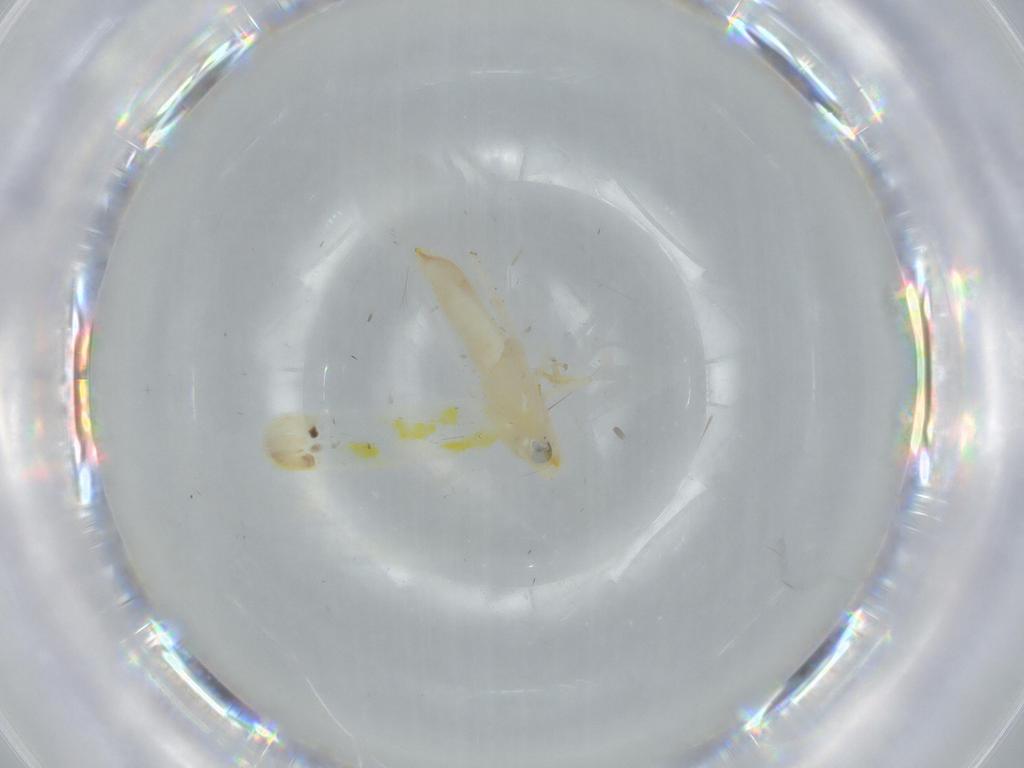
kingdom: Animalia
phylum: Arthropoda
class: Insecta
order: Hemiptera
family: Cicadellidae
